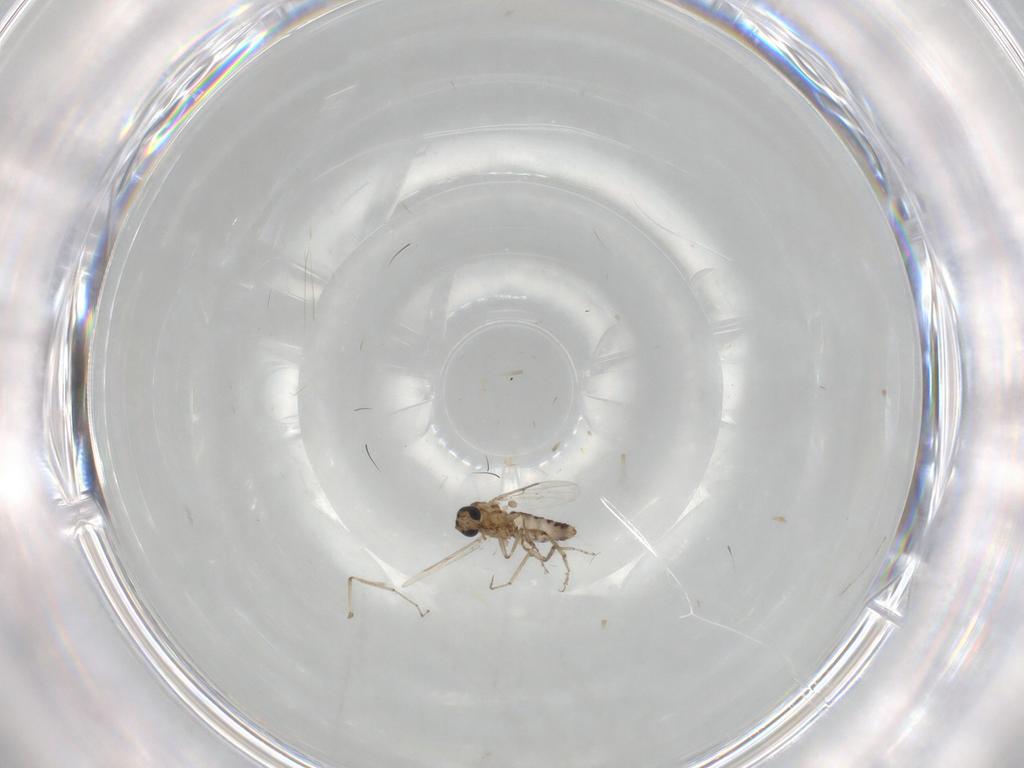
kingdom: Animalia
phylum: Arthropoda
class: Insecta
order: Diptera
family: Ceratopogonidae
